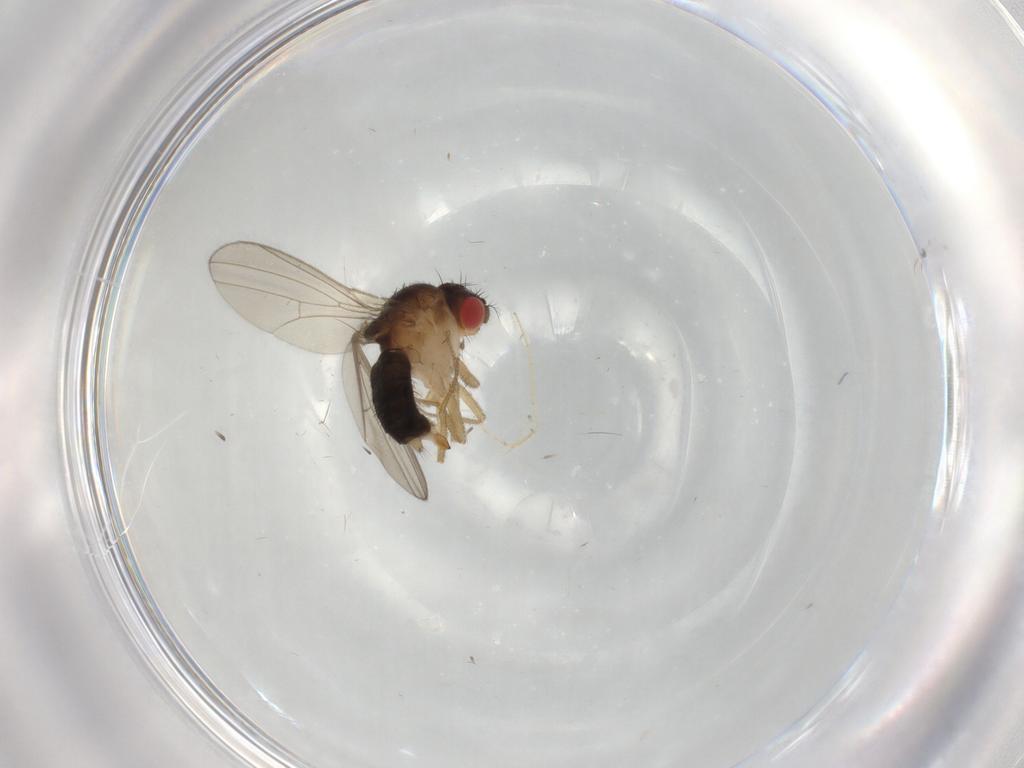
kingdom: Animalia
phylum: Arthropoda
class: Insecta
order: Diptera
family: Drosophilidae
